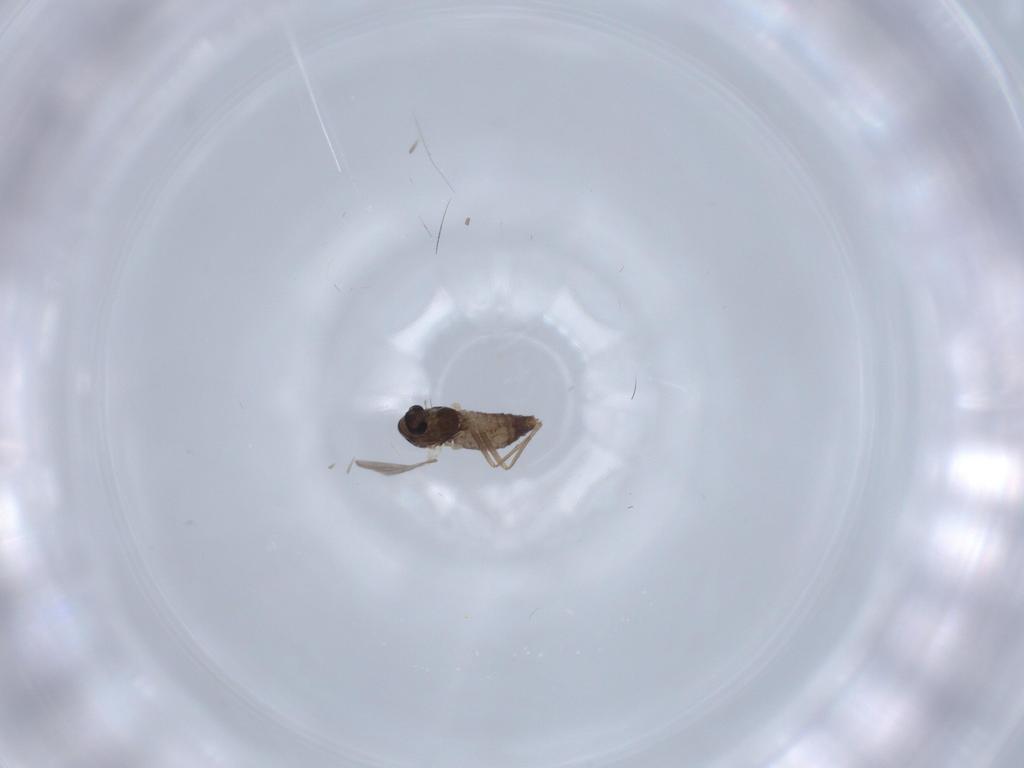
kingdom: Animalia
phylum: Arthropoda
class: Insecta
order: Diptera
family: Chironomidae
